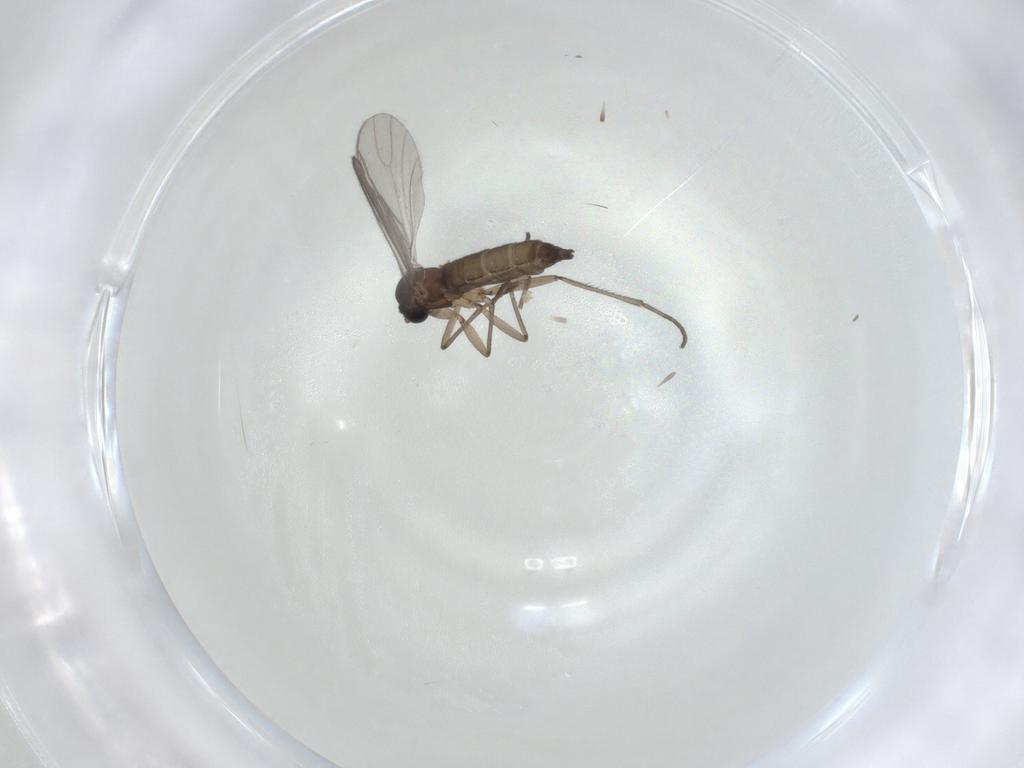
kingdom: Animalia
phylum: Arthropoda
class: Insecta
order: Diptera
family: Sciaridae
